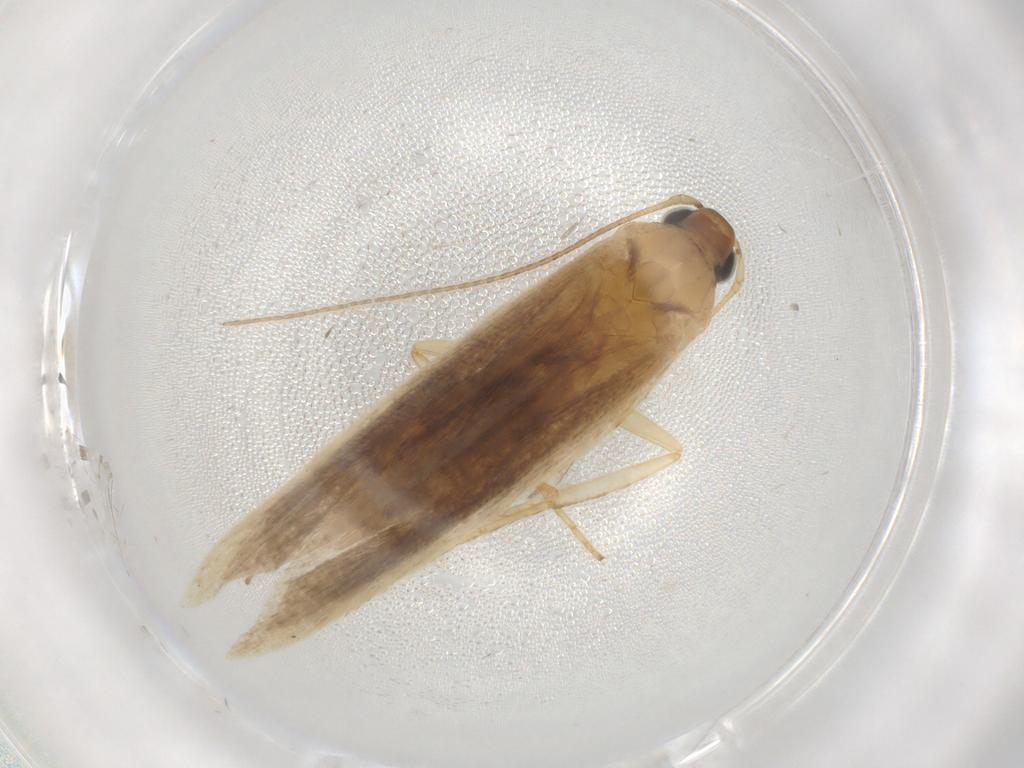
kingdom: Animalia
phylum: Arthropoda
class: Insecta
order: Lepidoptera
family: Gelechiidae
